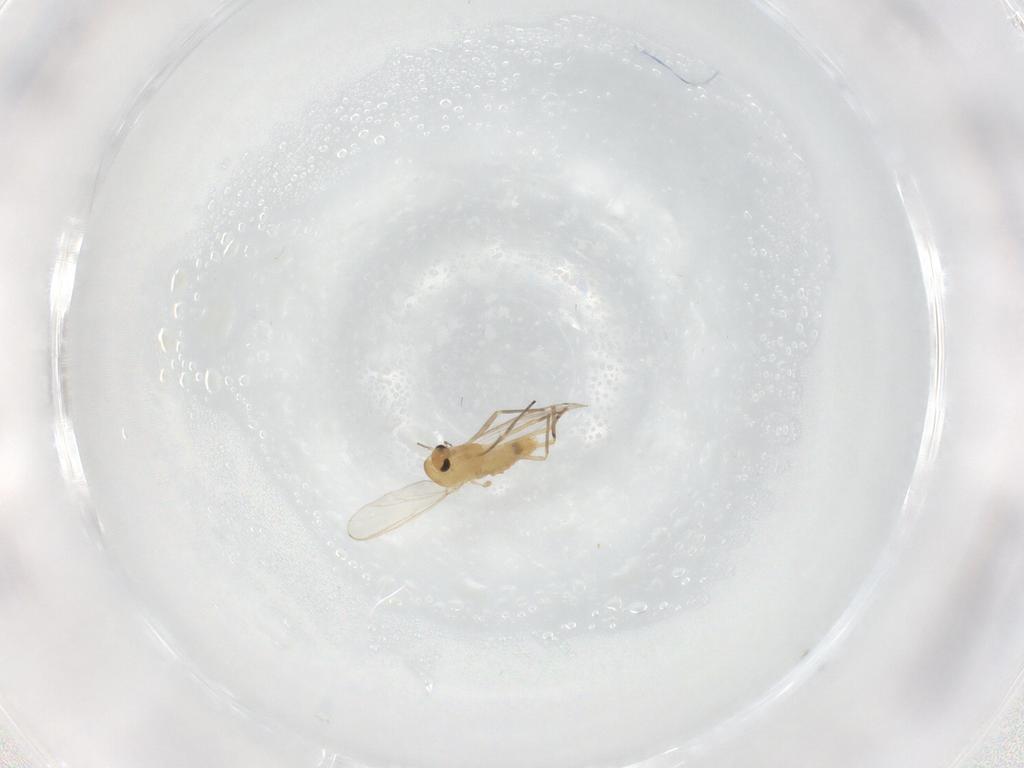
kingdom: Animalia
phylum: Arthropoda
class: Insecta
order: Diptera
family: Chironomidae
